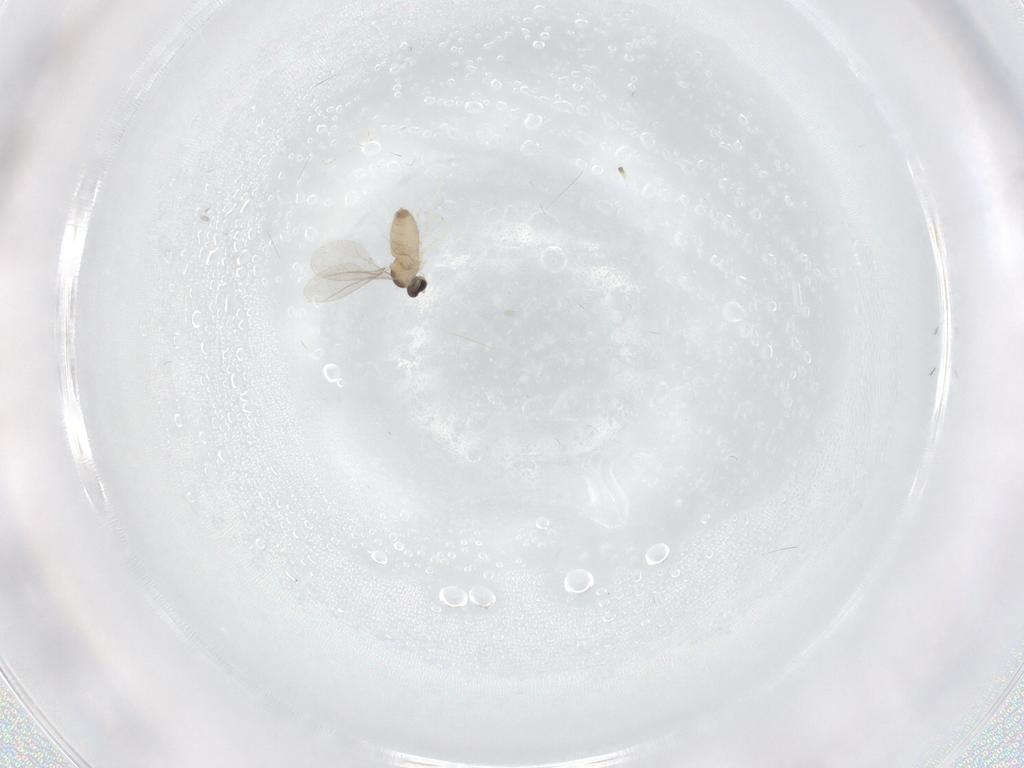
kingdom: Animalia
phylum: Arthropoda
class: Insecta
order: Diptera
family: Cecidomyiidae
